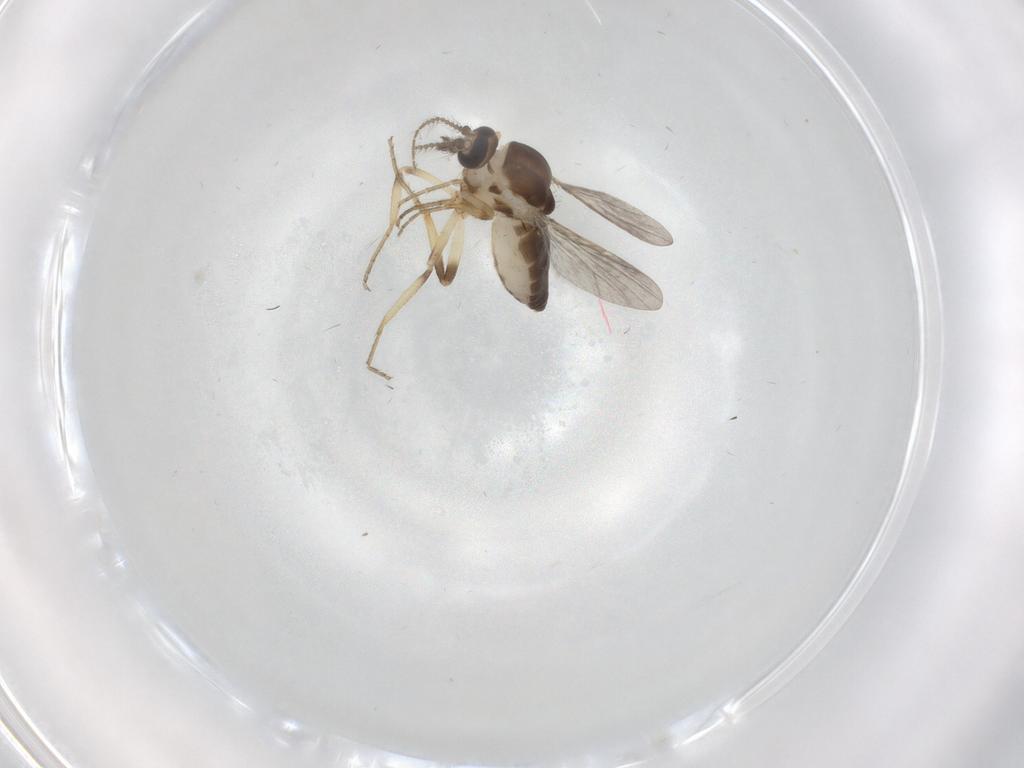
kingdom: Animalia
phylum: Arthropoda
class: Insecta
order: Diptera
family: Ceratopogonidae
